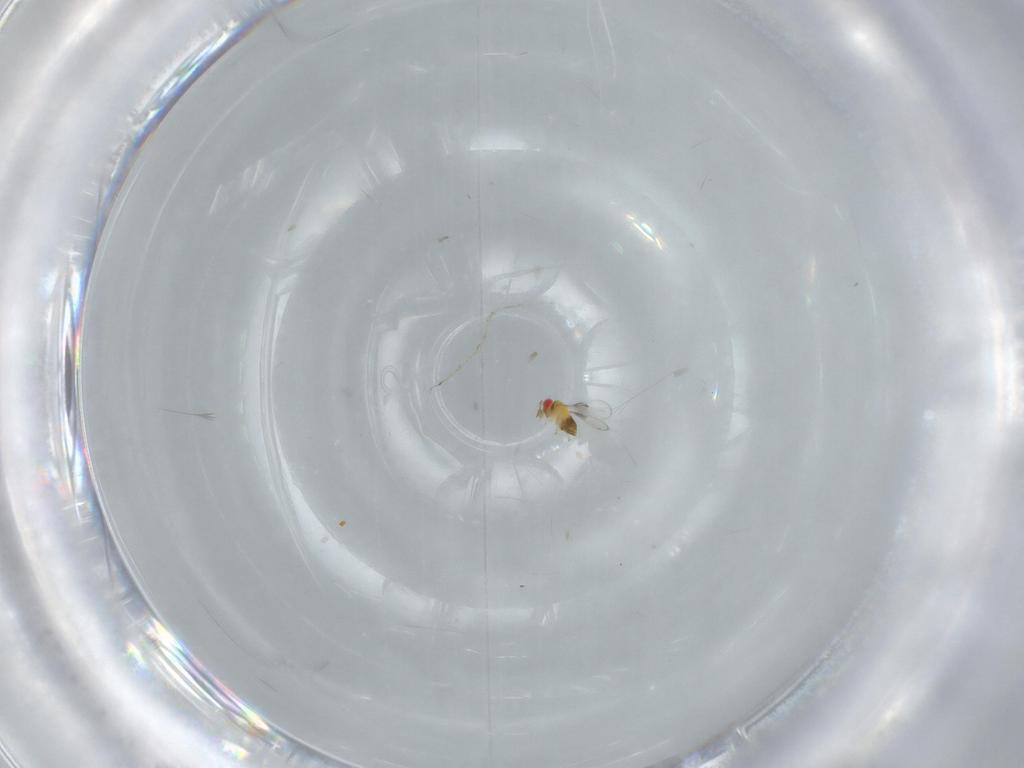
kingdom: Animalia
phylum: Arthropoda
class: Insecta
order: Hymenoptera
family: Trichogrammatidae
